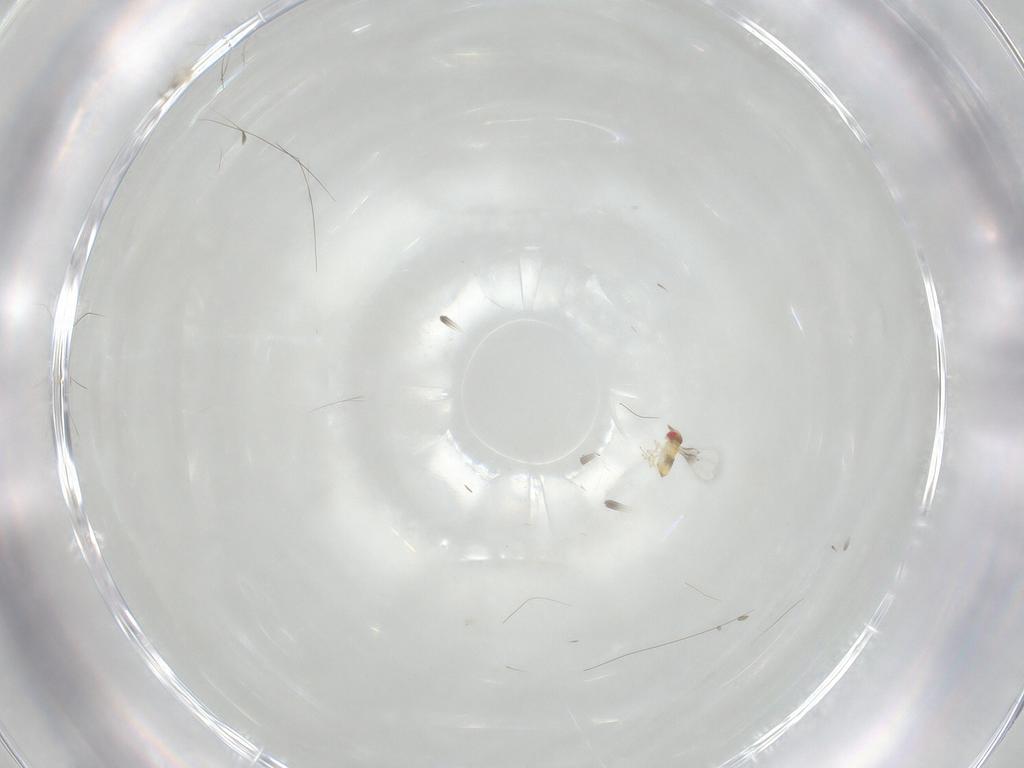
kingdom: Animalia
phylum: Arthropoda
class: Insecta
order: Hymenoptera
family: Trichogrammatidae
